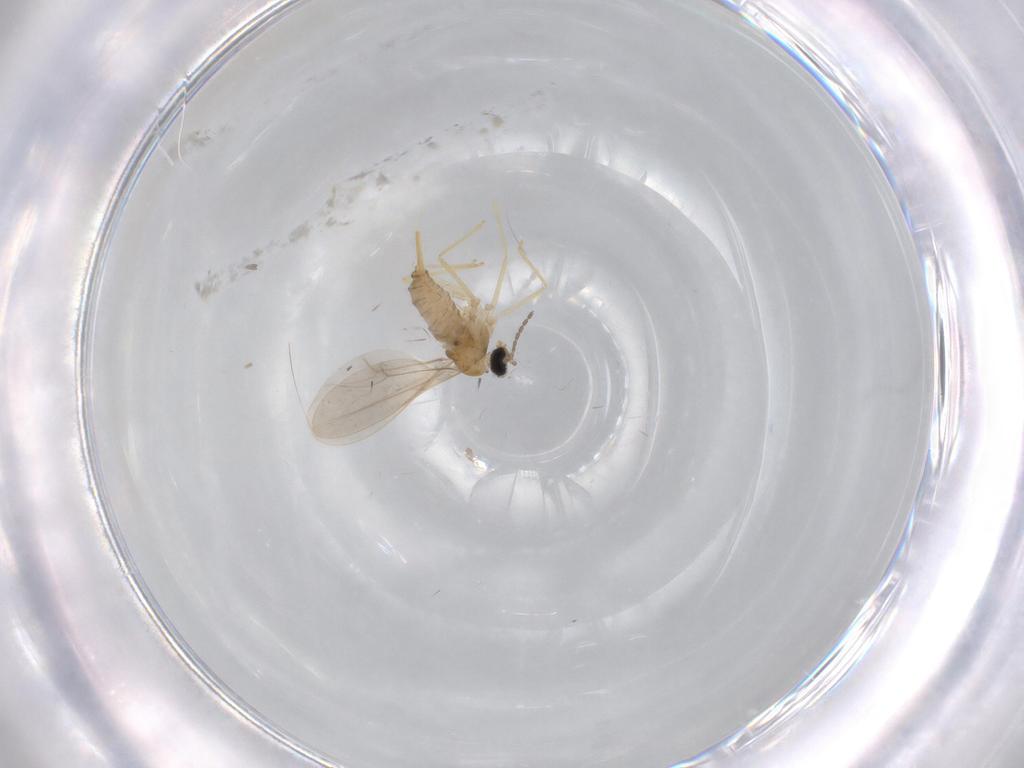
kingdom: Animalia
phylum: Arthropoda
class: Insecta
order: Diptera
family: Cecidomyiidae
